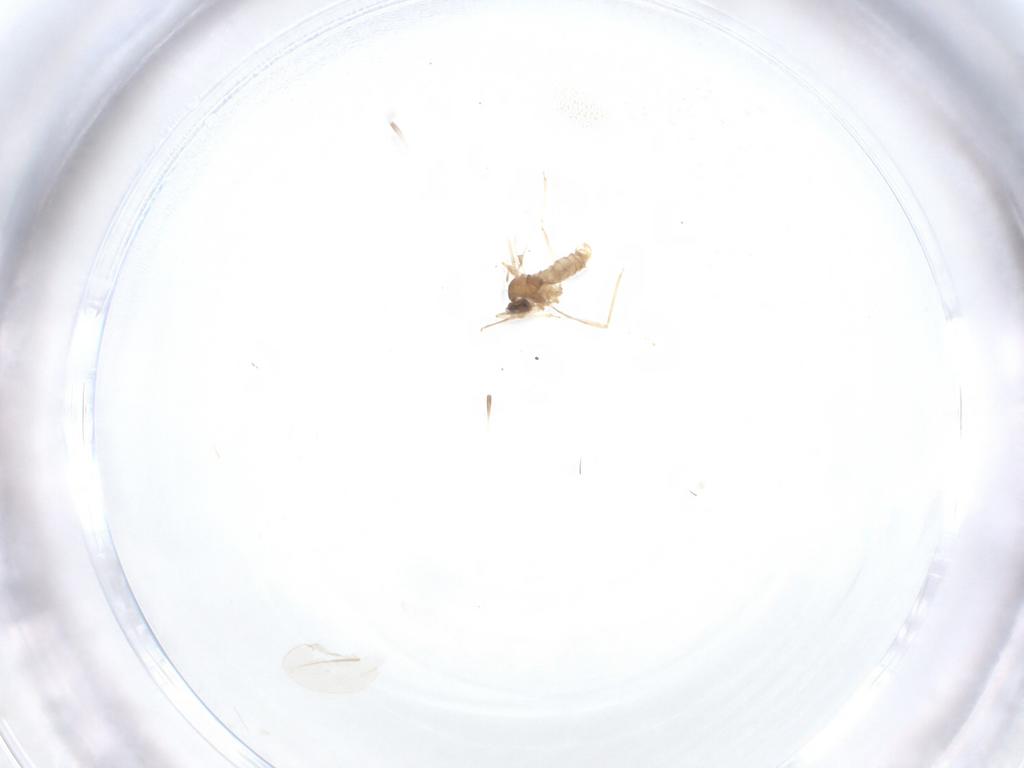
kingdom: Animalia
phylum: Arthropoda
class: Insecta
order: Diptera
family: Cecidomyiidae
